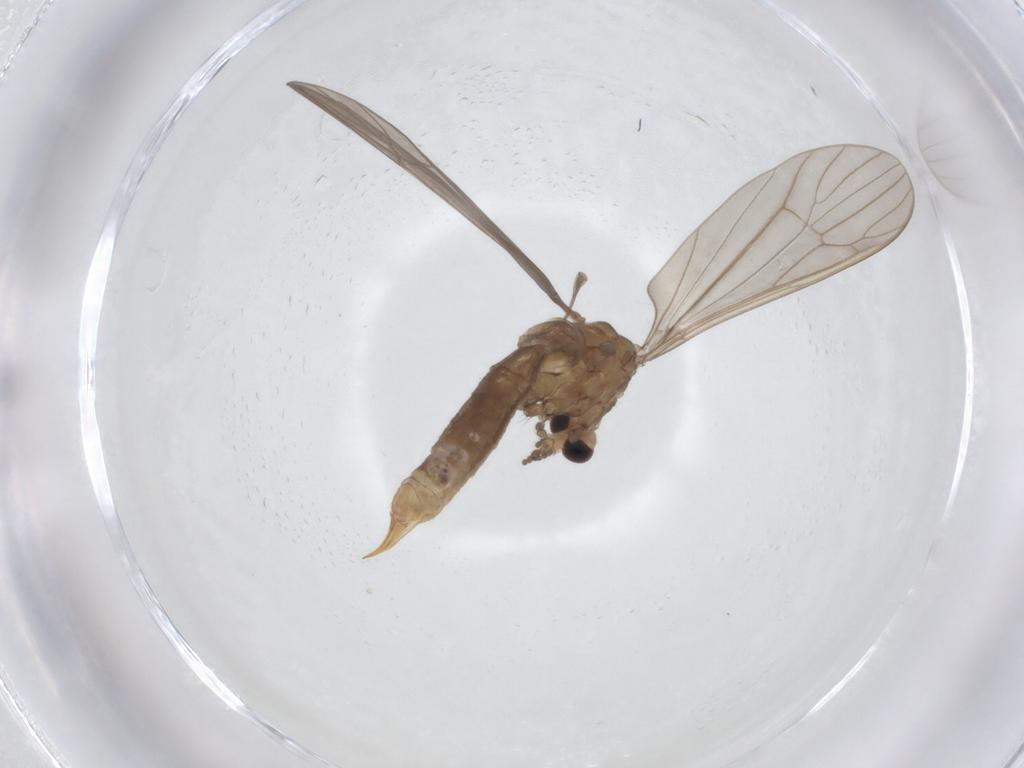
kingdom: Animalia
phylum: Arthropoda
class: Insecta
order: Diptera
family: Limoniidae
